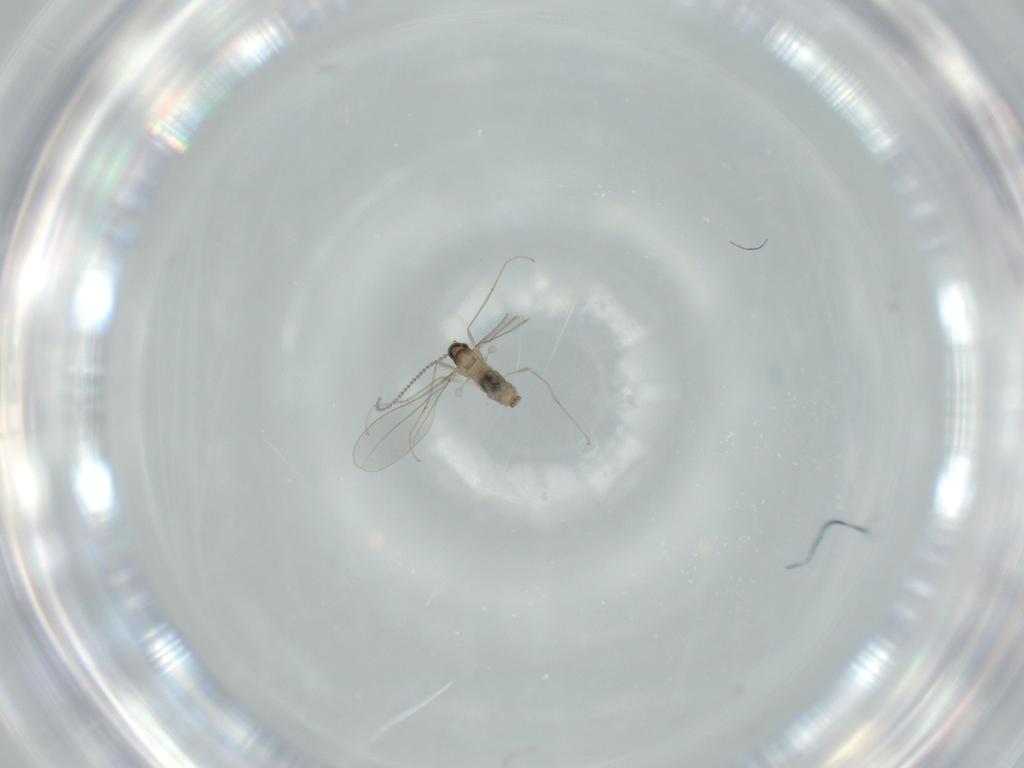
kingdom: Animalia
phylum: Arthropoda
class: Insecta
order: Diptera
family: Cecidomyiidae
